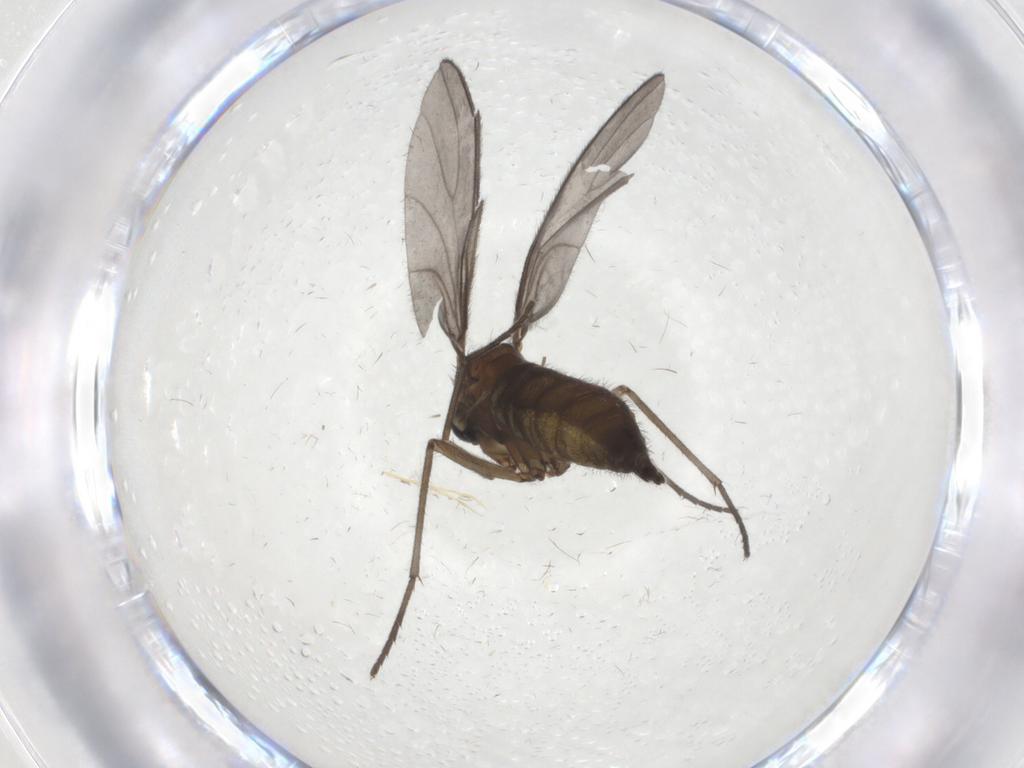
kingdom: Animalia
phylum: Arthropoda
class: Insecta
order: Diptera
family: Sciaridae
